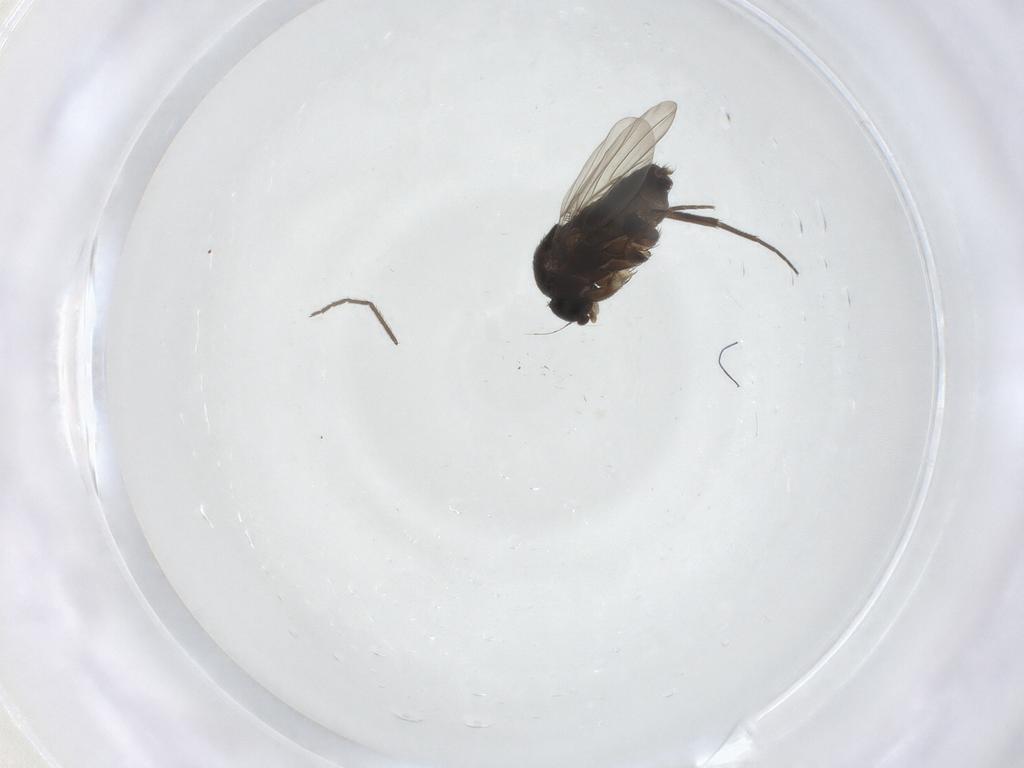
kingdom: Animalia
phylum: Arthropoda
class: Insecta
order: Diptera
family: Phoridae
